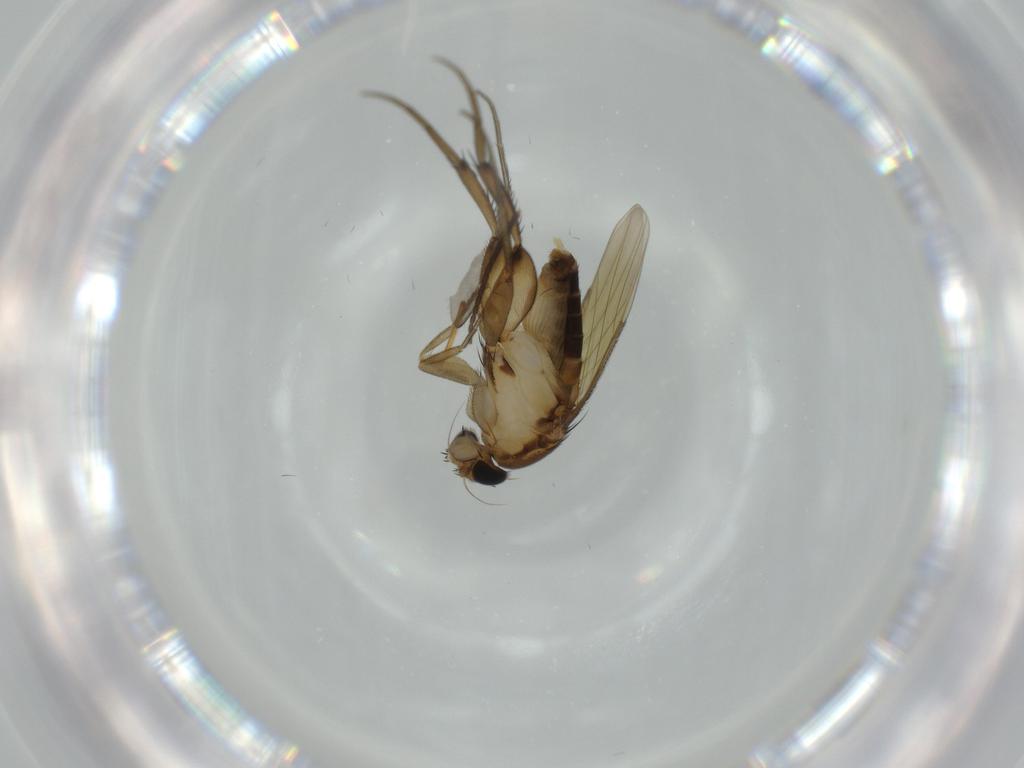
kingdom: Animalia
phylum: Arthropoda
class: Insecta
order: Diptera
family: Phoridae
